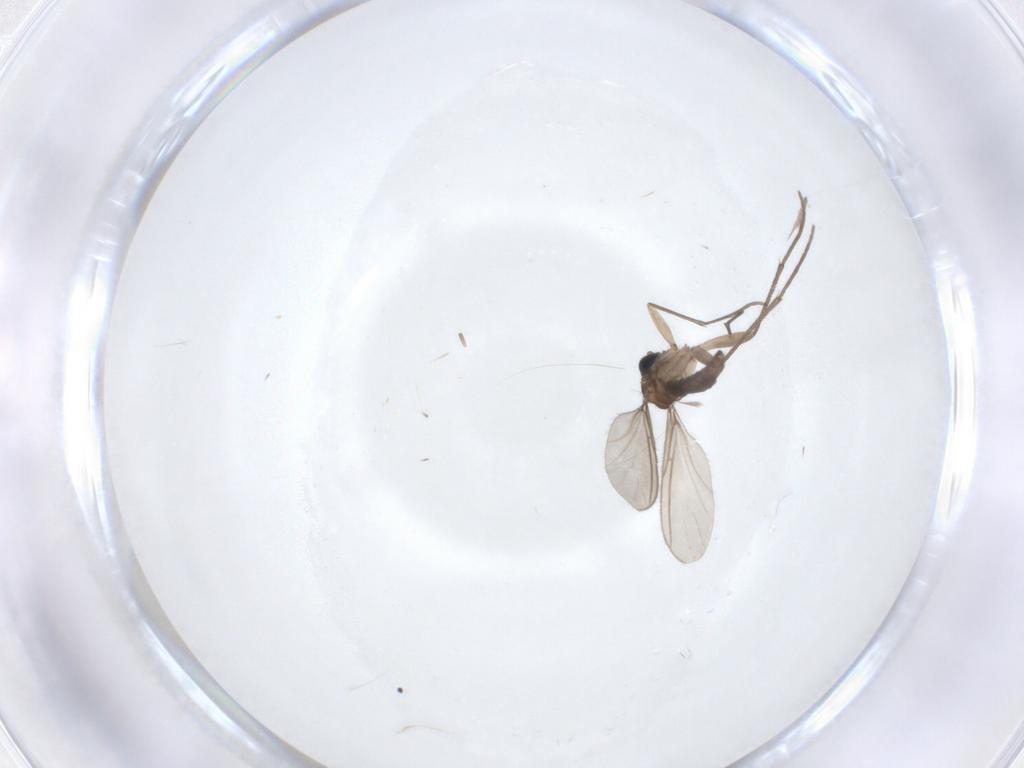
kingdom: Animalia
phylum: Arthropoda
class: Insecta
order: Diptera
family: Sciaridae
